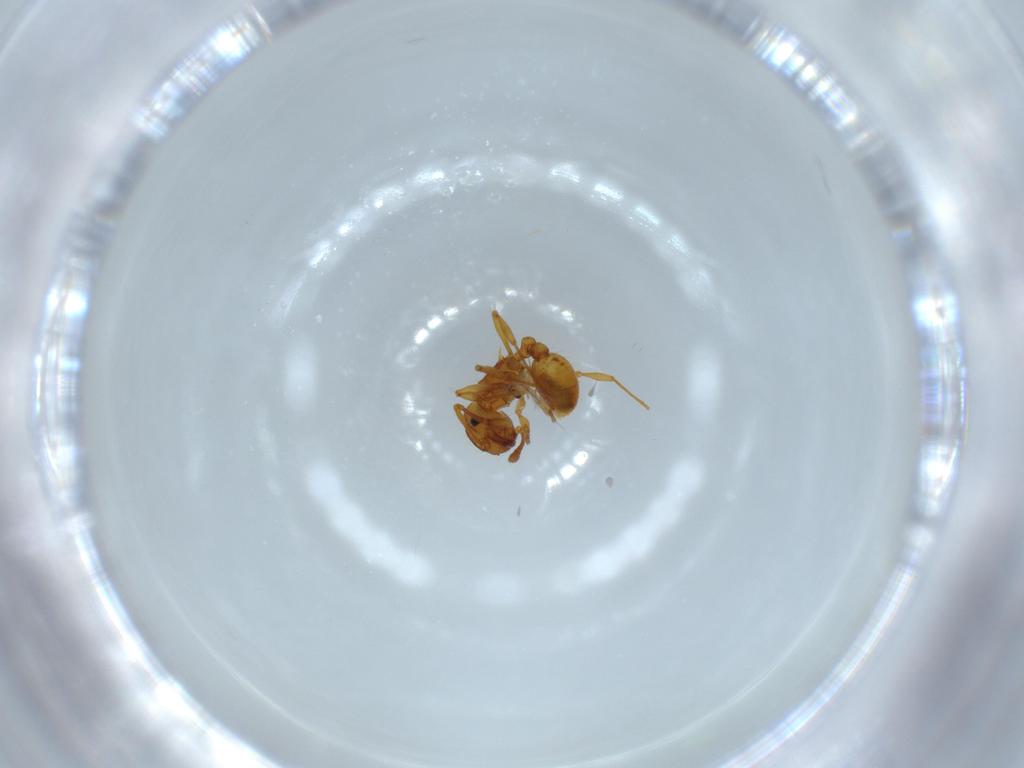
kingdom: Animalia
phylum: Arthropoda
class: Insecta
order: Hymenoptera
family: Formicidae
